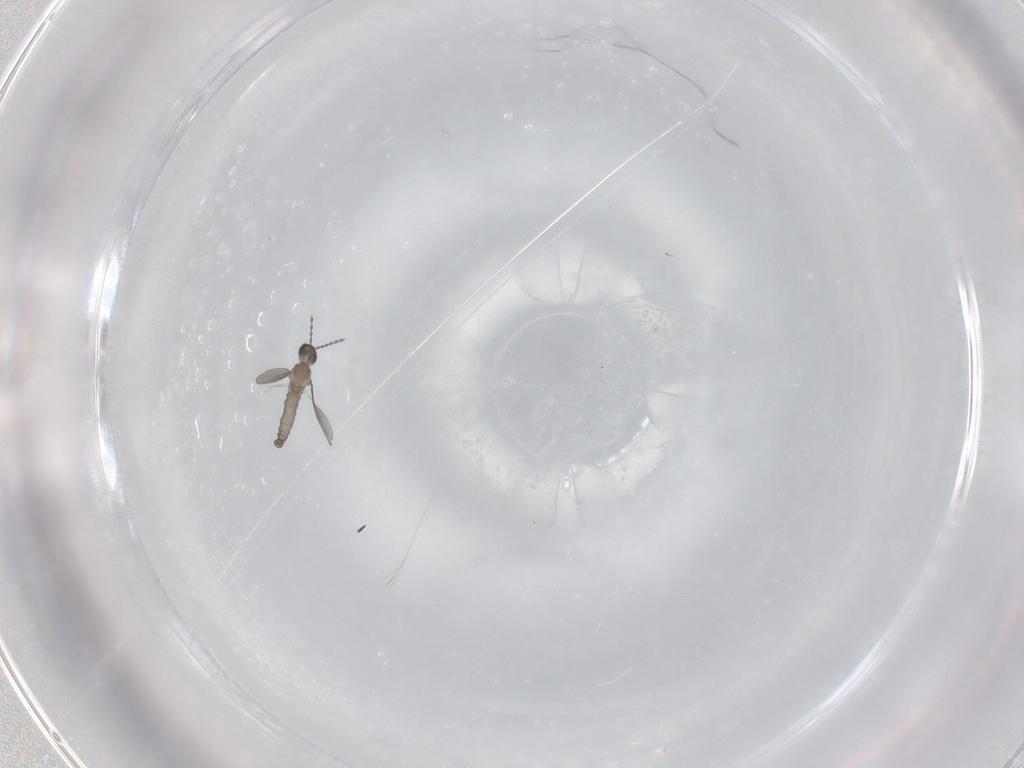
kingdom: Animalia
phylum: Arthropoda
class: Insecta
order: Diptera
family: Cecidomyiidae
